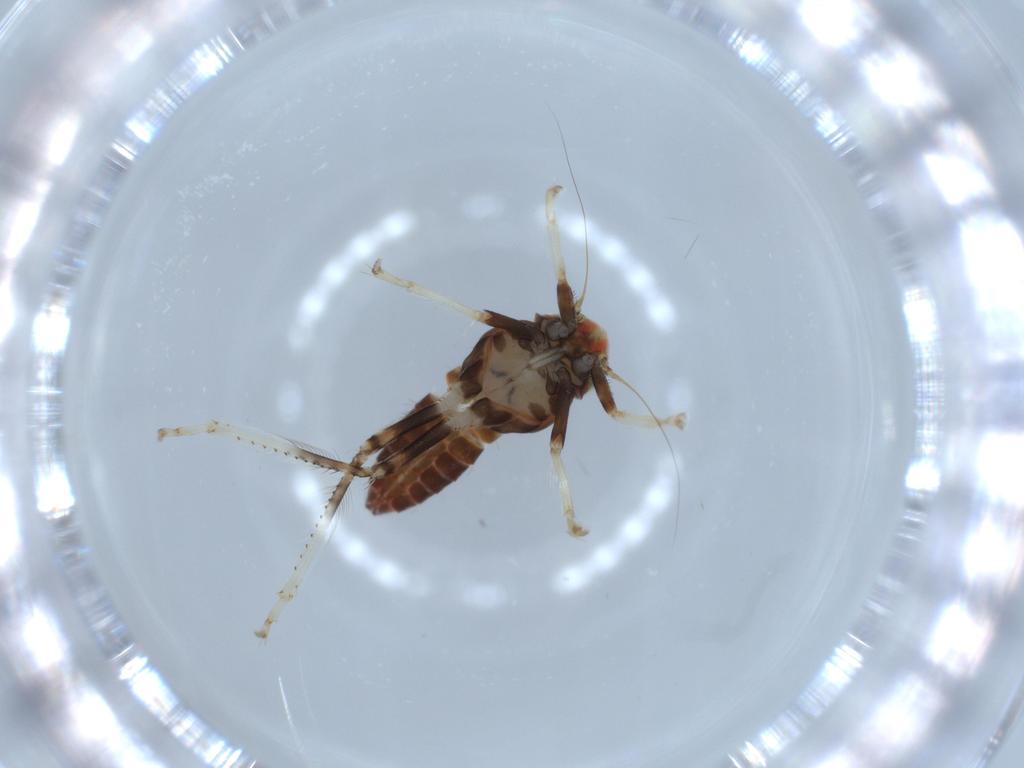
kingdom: Animalia
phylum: Arthropoda
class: Insecta
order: Hemiptera
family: Cicadellidae
